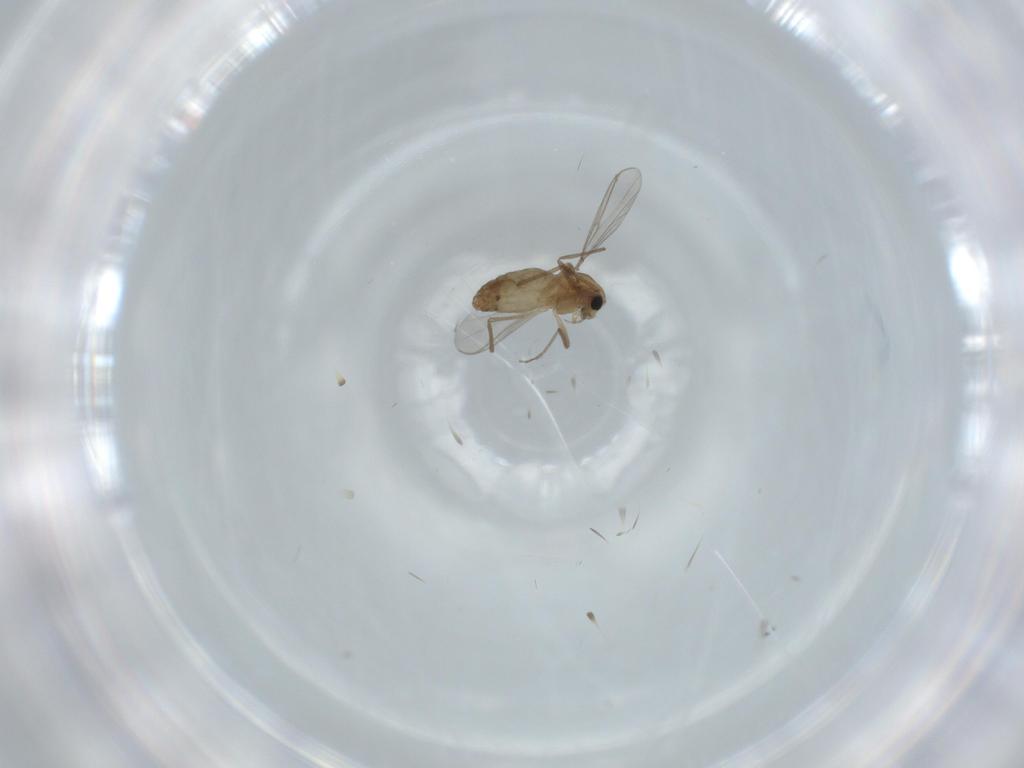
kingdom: Animalia
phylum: Arthropoda
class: Insecta
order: Diptera
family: Chironomidae
